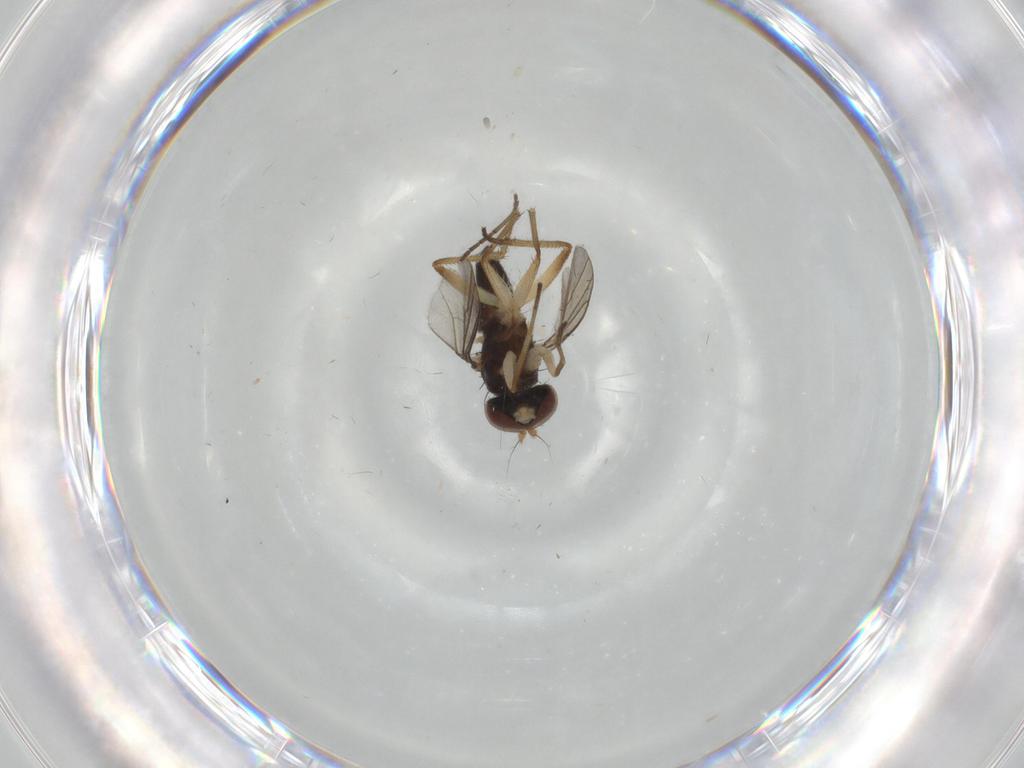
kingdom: Animalia
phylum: Arthropoda
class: Insecta
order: Diptera
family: Dolichopodidae
